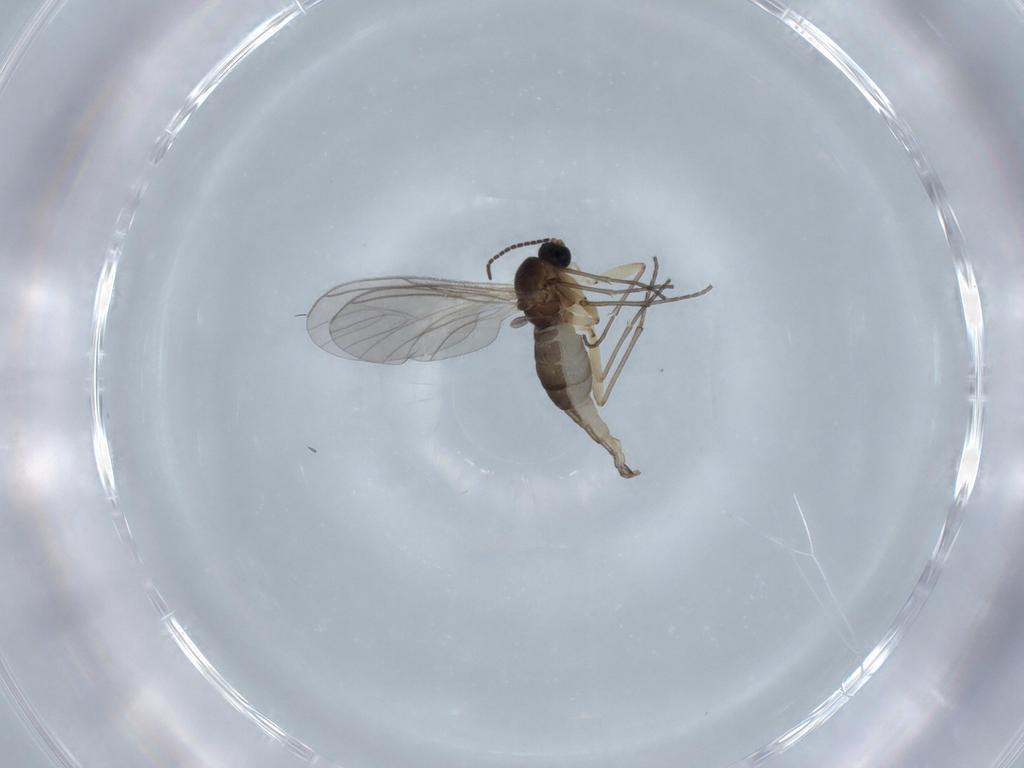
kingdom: Animalia
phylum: Arthropoda
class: Insecta
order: Diptera
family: Sciaridae
